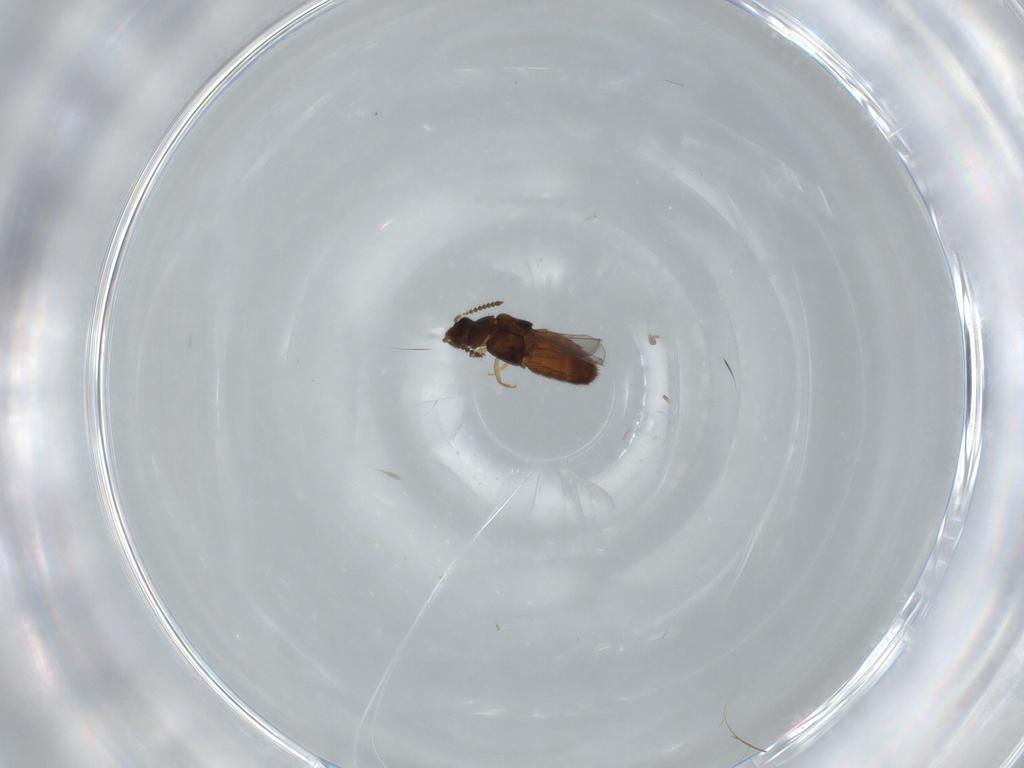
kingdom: Animalia
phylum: Arthropoda
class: Insecta
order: Coleoptera
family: Staphylinidae
